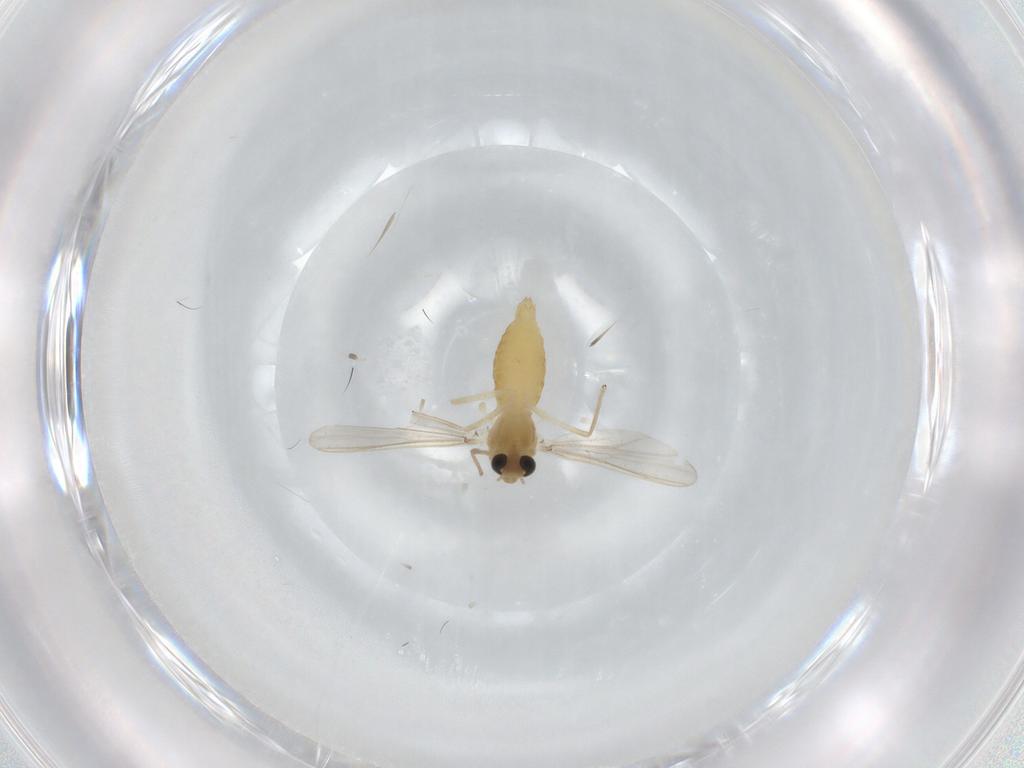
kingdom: Animalia
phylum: Arthropoda
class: Insecta
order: Diptera
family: Chironomidae
